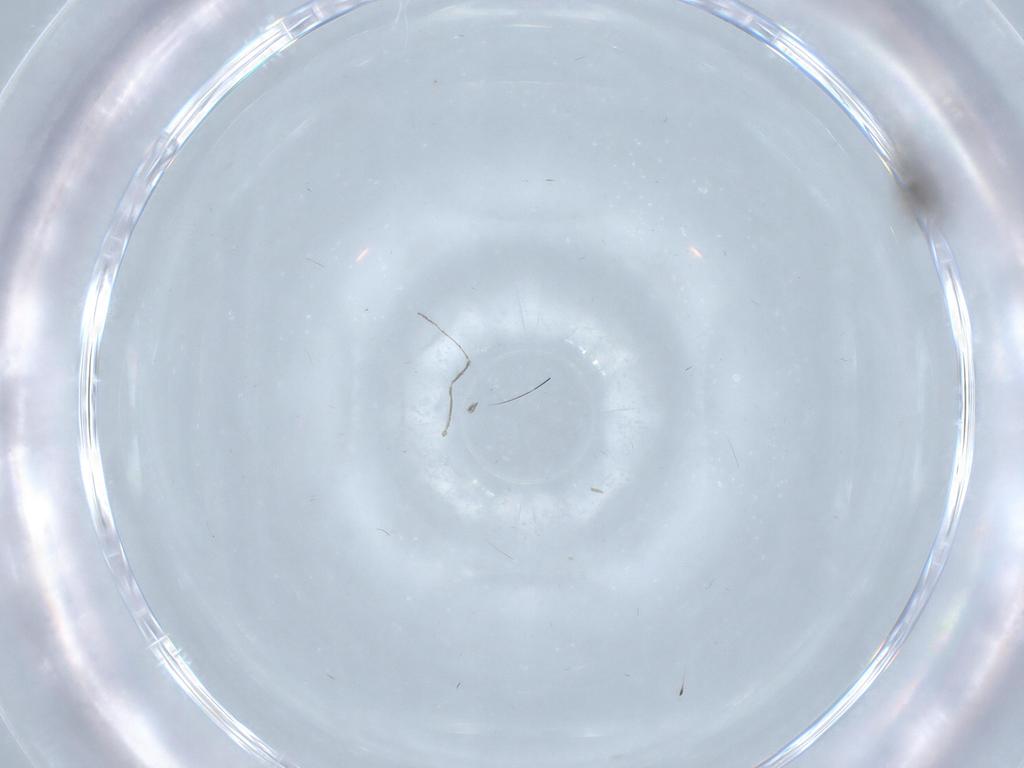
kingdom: Animalia
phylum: Arthropoda
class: Insecta
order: Diptera
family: Cecidomyiidae
